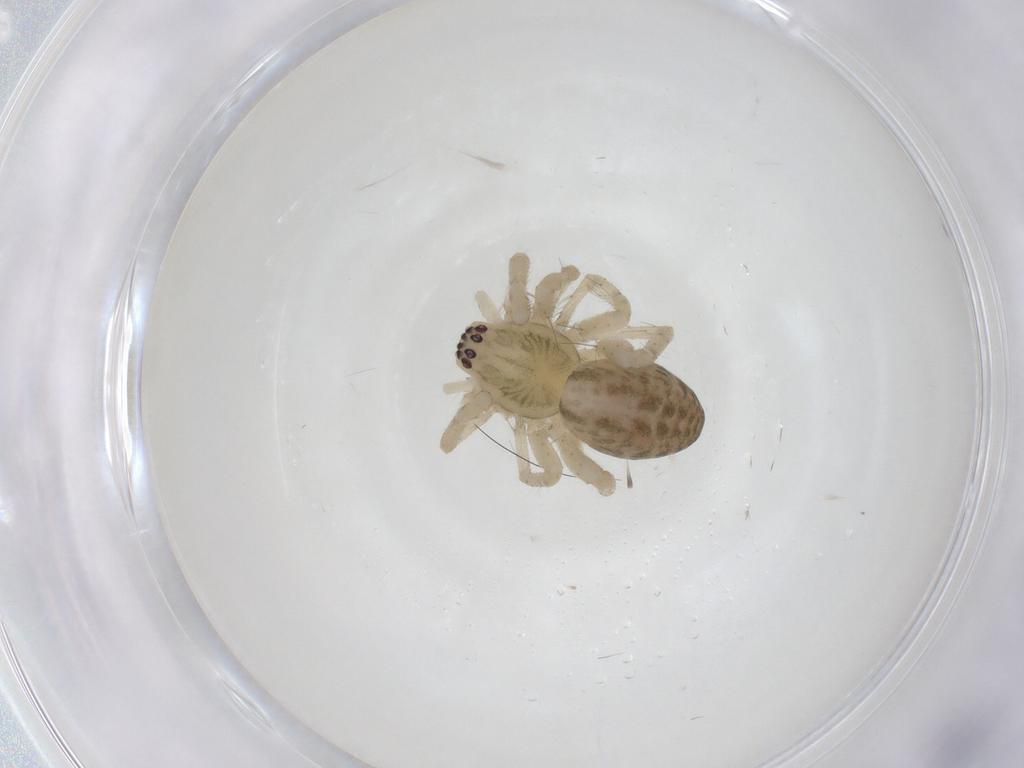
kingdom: Animalia
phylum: Arthropoda
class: Arachnida
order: Araneae
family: Anyphaenidae
